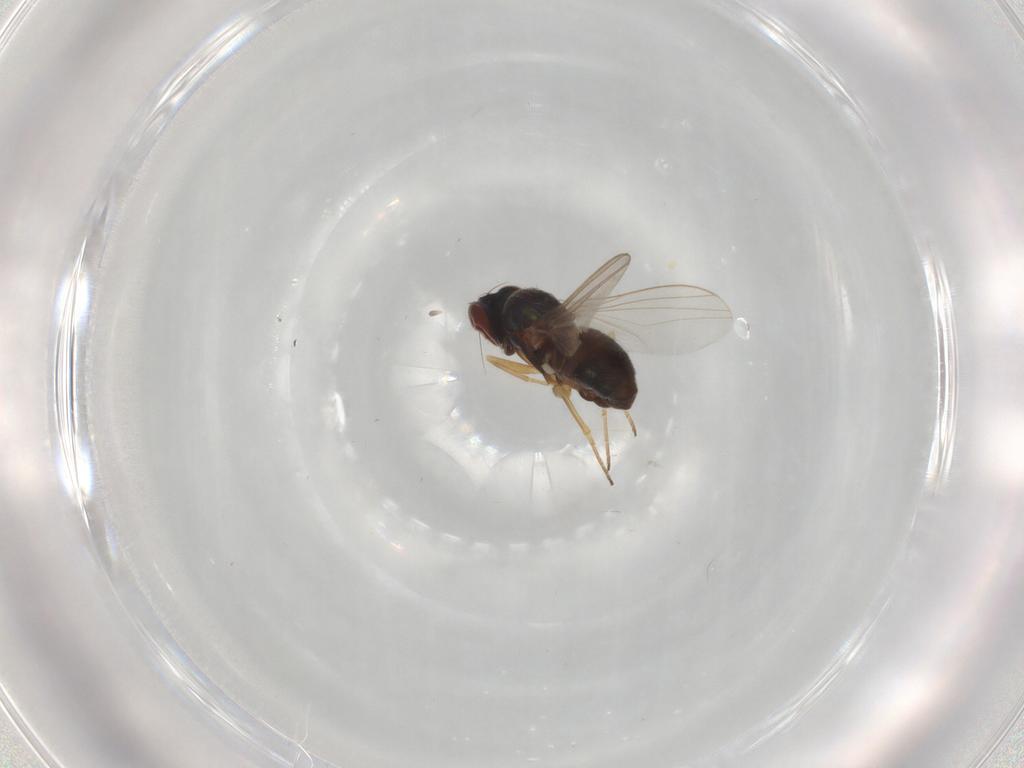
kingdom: Animalia
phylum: Arthropoda
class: Insecta
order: Diptera
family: Dolichopodidae
